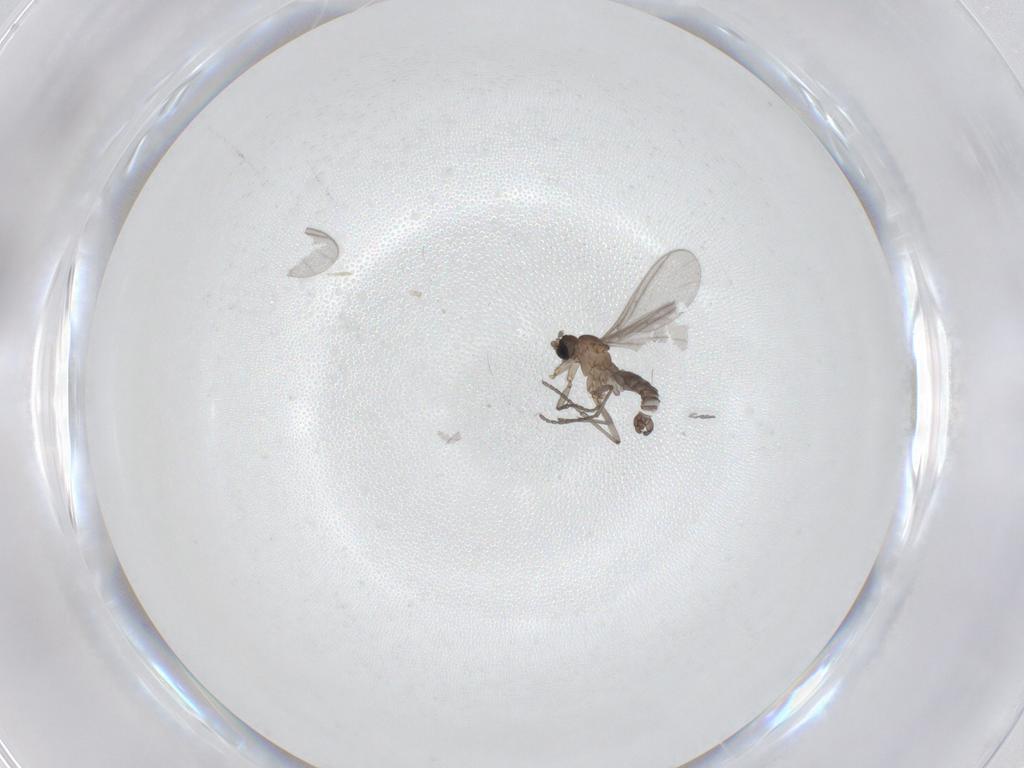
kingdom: Animalia
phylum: Arthropoda
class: Insecta
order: Diptera
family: Sciaridae
